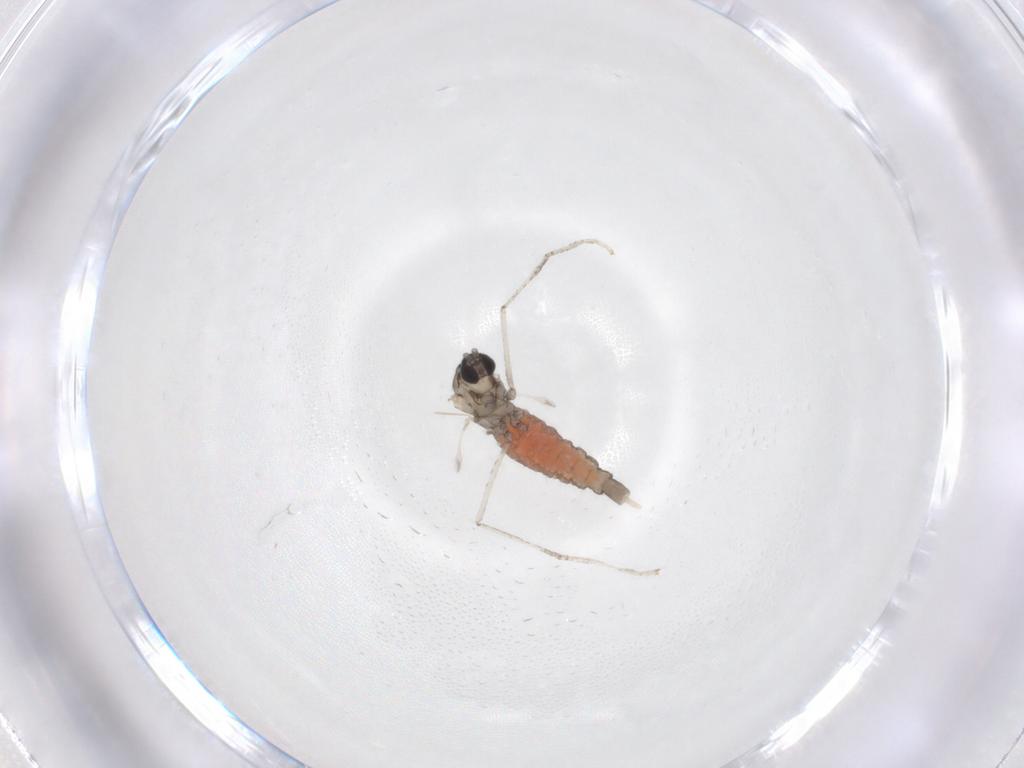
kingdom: Animalia
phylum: Arthropoda
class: Insecta
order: Diptera
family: Cecidomyiidae
